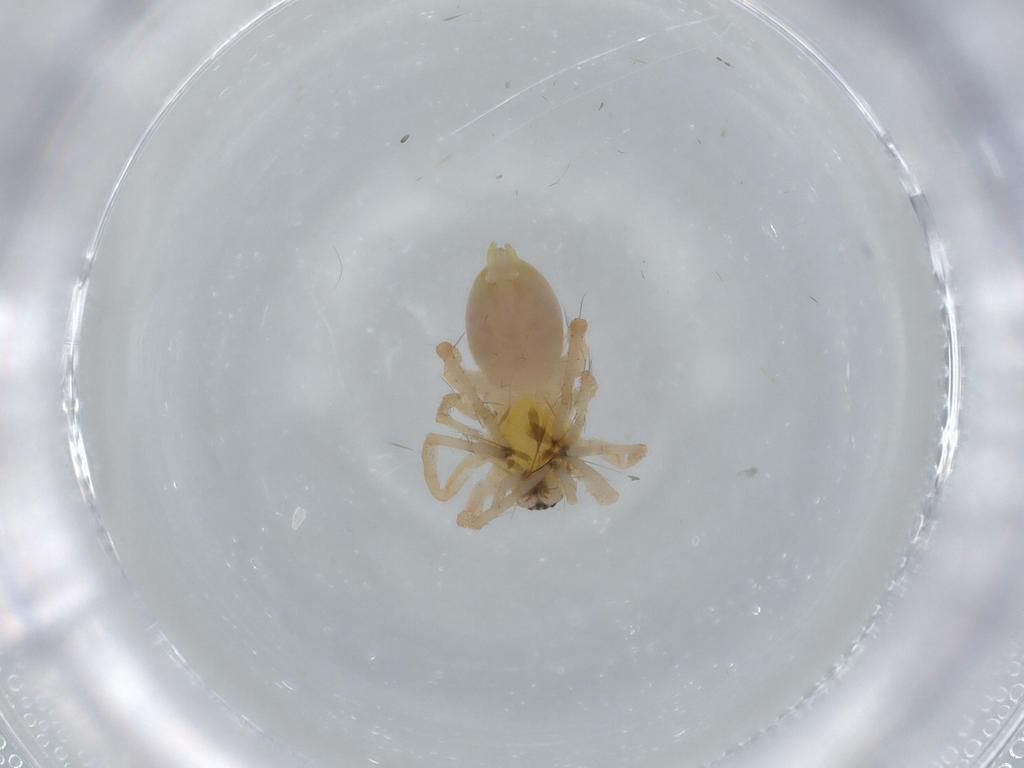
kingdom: Animalia
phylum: Arthropoda
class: Arachnida
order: Araneae
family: Anyphaenidae
